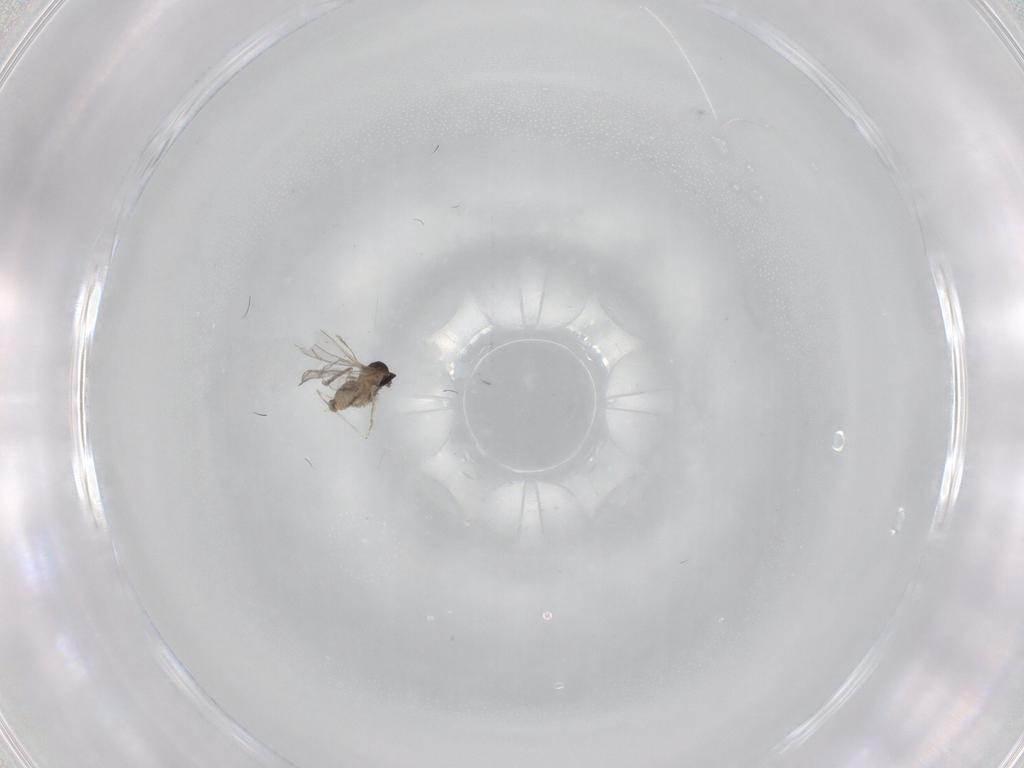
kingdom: Animalia
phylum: Arthropoda
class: Insecta
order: Diptera
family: Cecidomyiidae
